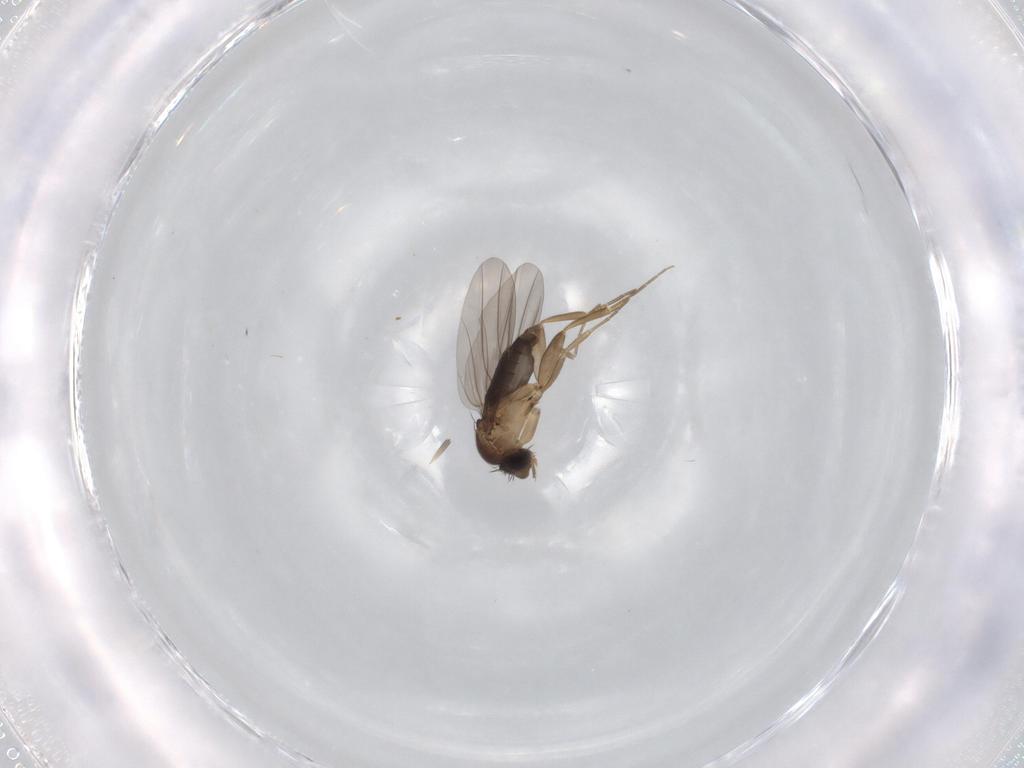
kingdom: Animalia
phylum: Arthropoda
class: Insecta
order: Diptera
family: Phoridae
